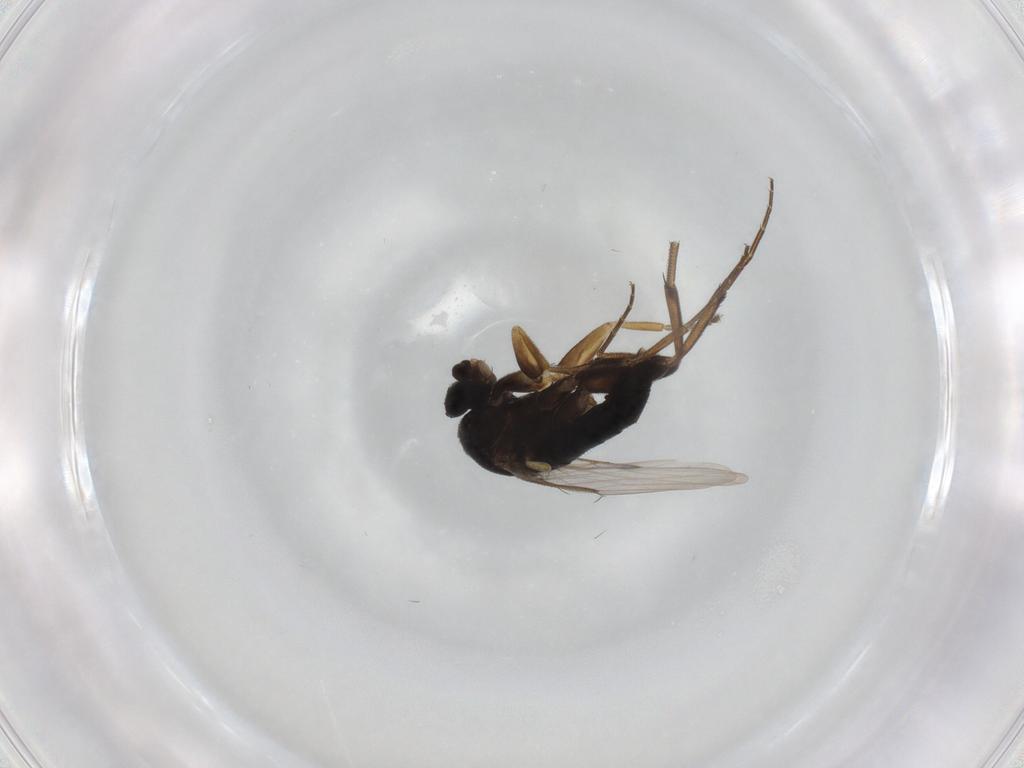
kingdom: Animalia
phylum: Arthropoda
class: Insecta
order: Diptera
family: Phoridae
